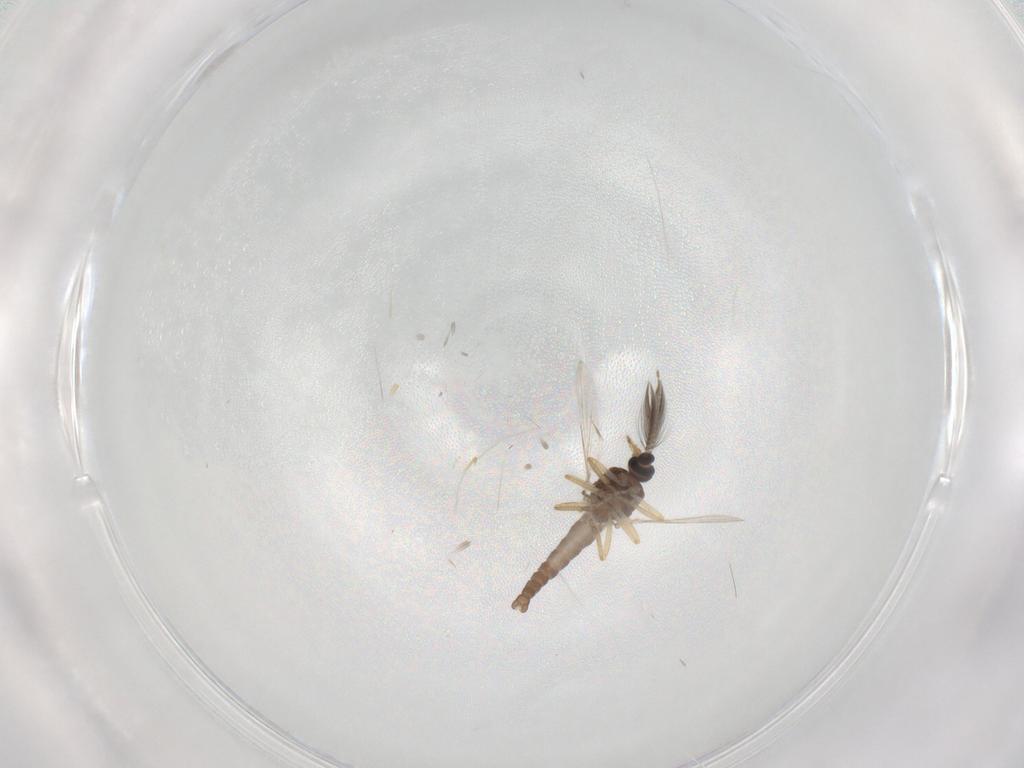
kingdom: Animalia
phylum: Arthropoda
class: Insecta
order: Diptera
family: Ceratopogonidae
